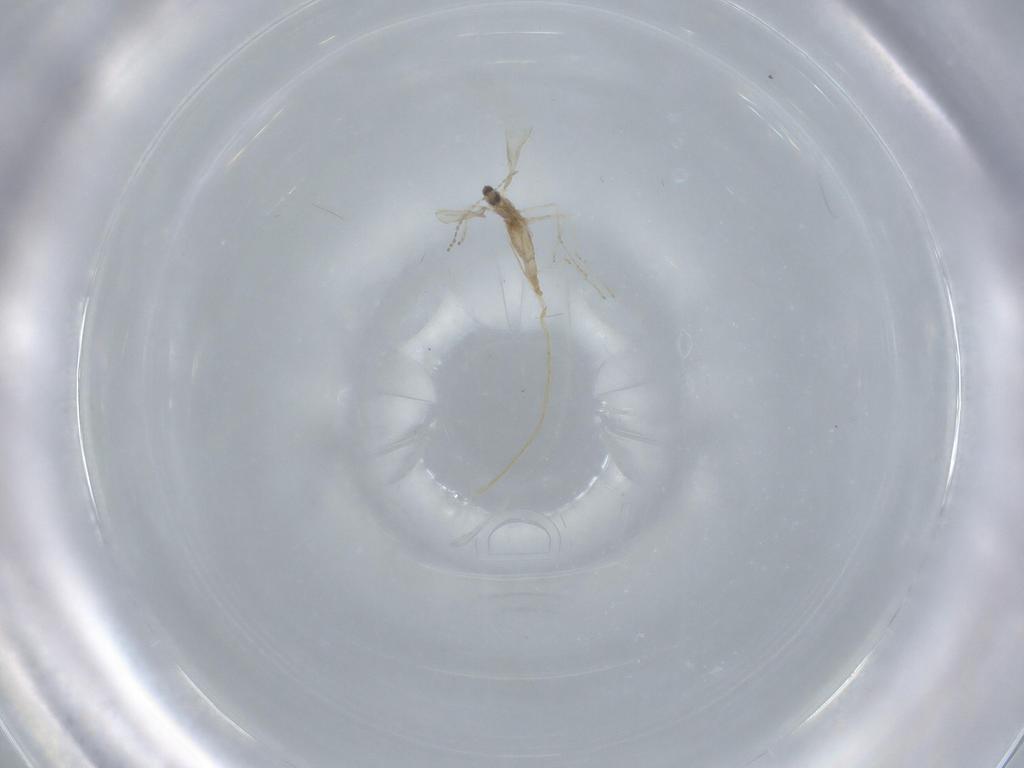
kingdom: Animalia
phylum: Arthropoda
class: Insecta
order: Diptera
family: Cecidomyiidae
